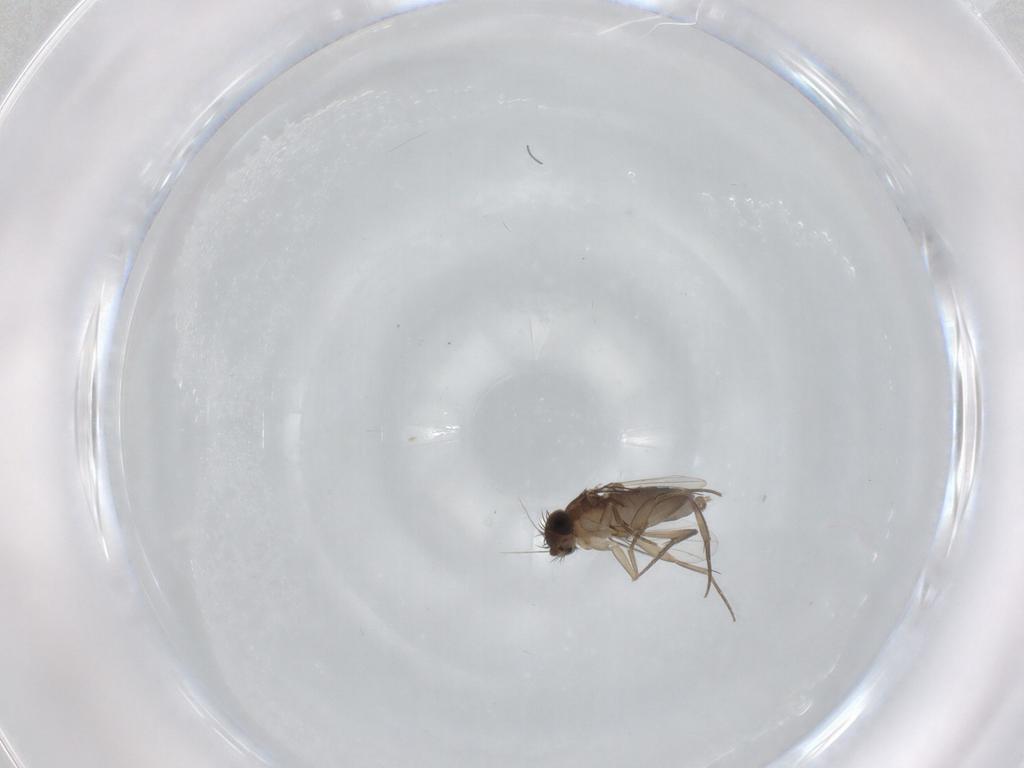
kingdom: Animalia
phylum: Arthropoda
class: Insecta
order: Diptera
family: Phoridae
